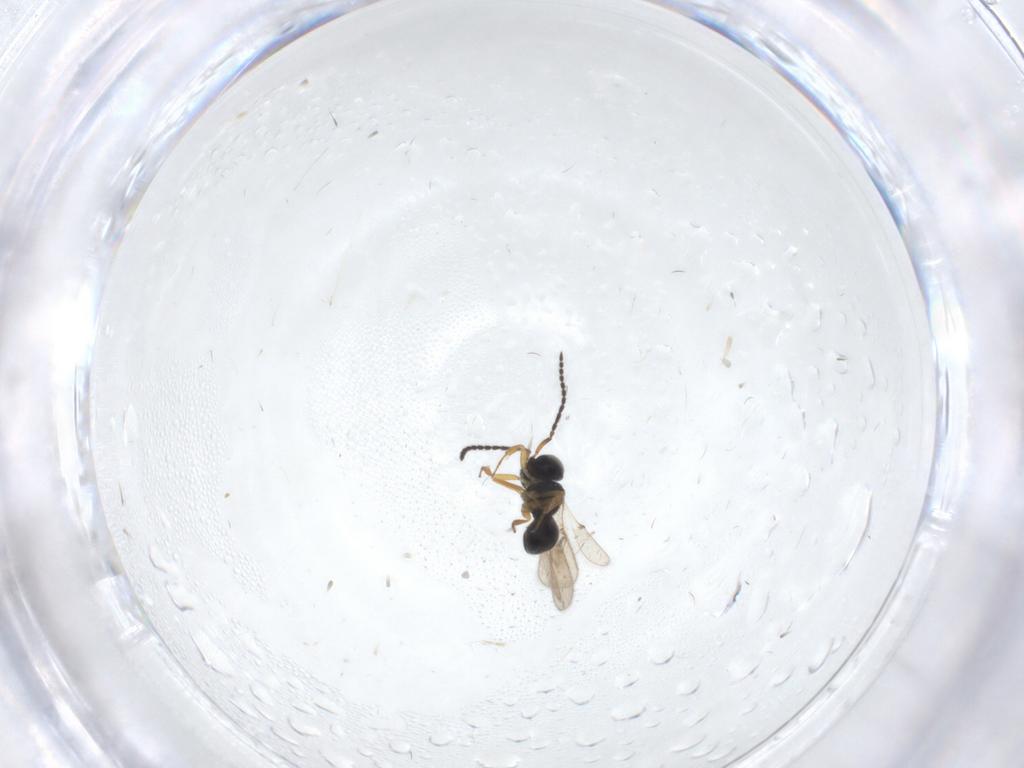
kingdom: Animalia
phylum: Arthropoda
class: Insecta
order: Hymenoptera
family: Scelionidae
